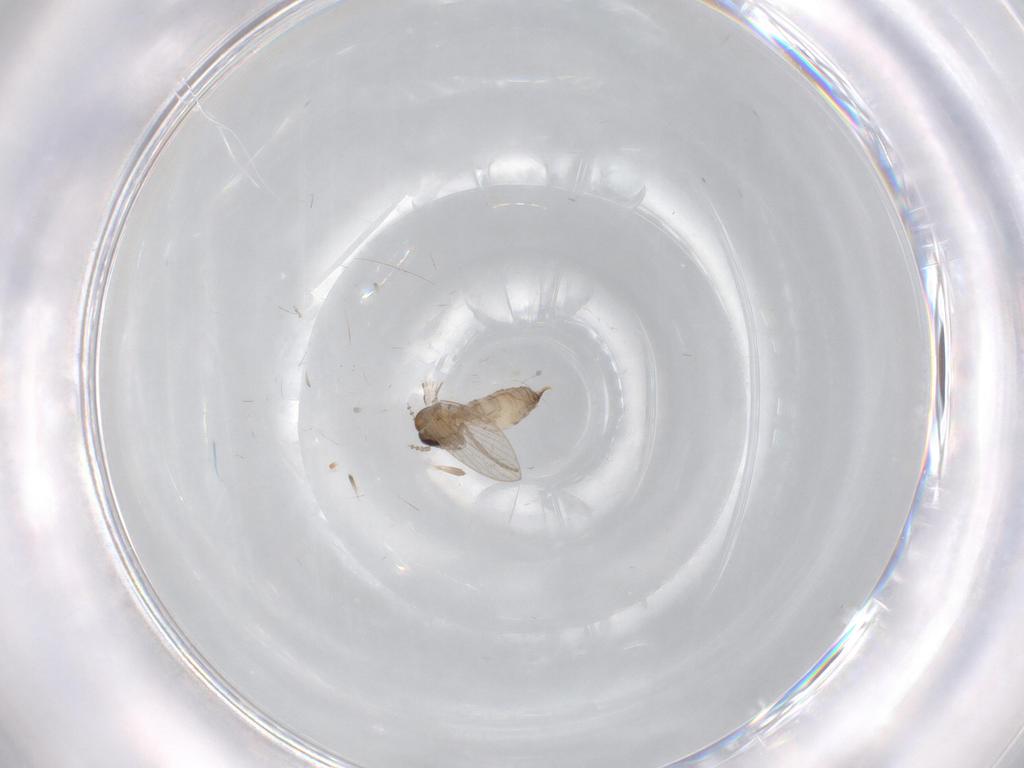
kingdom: Animalia
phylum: Arthropoda
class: Insecta
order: Diptera
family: Psychodidae
